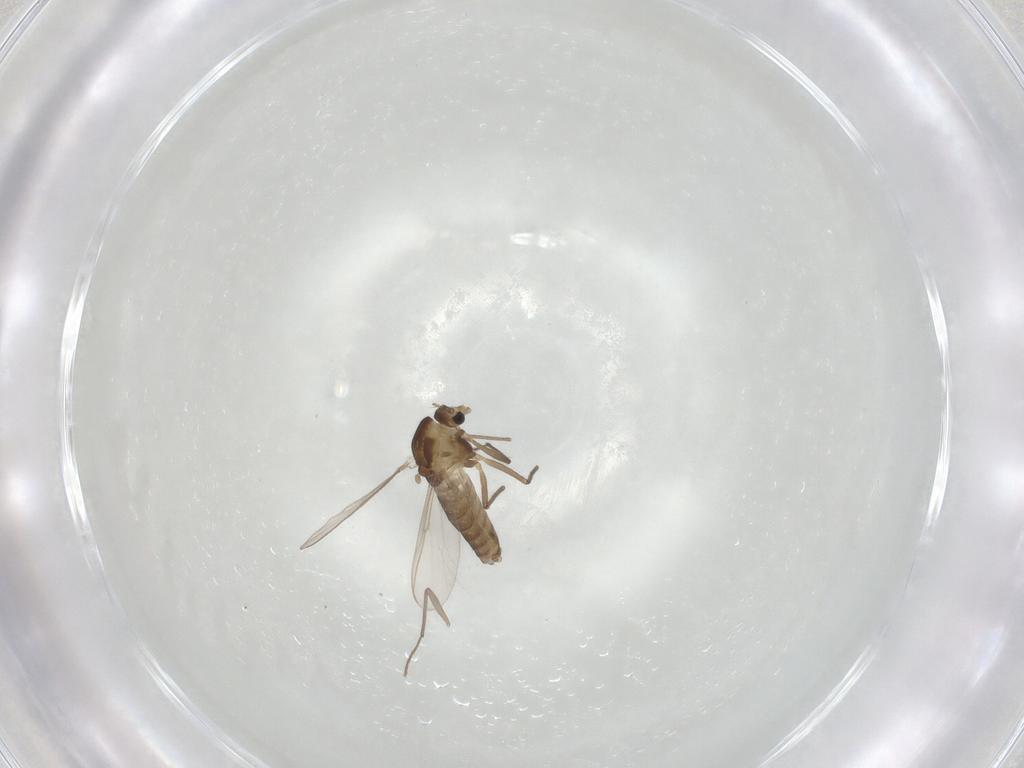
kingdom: Animalia
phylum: Arthropoda
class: Insecta
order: Diptera
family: Chironomidae
